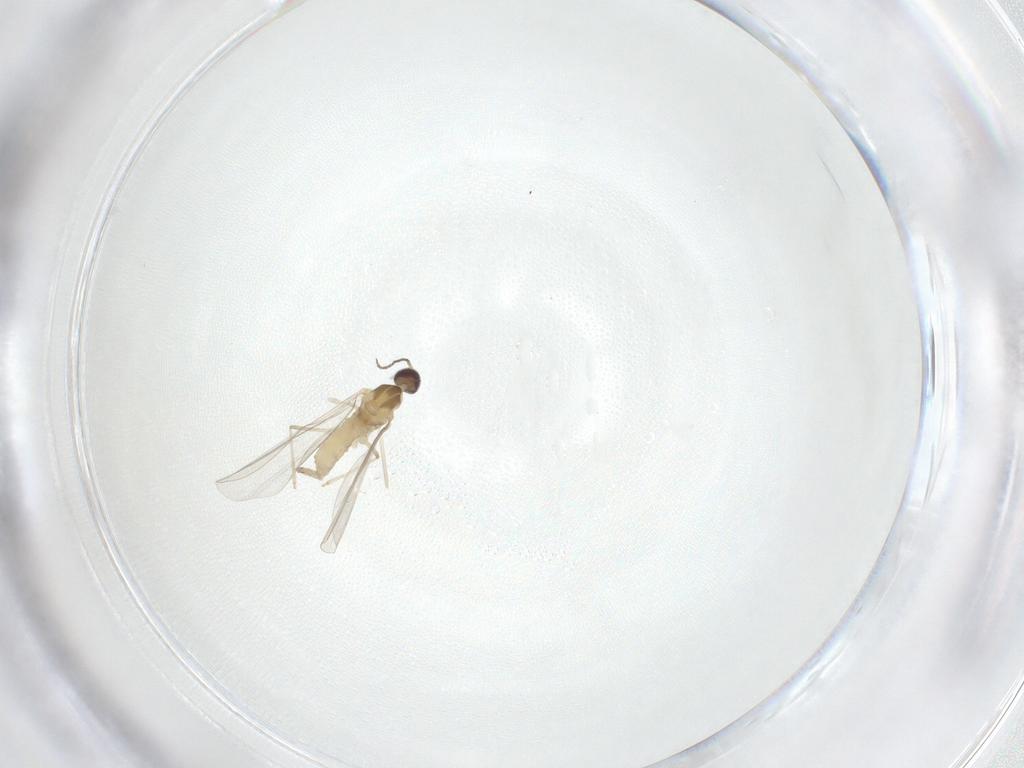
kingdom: Animalia
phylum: Arthropoda
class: Insecta
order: Diptera
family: Cecidomyiidae
